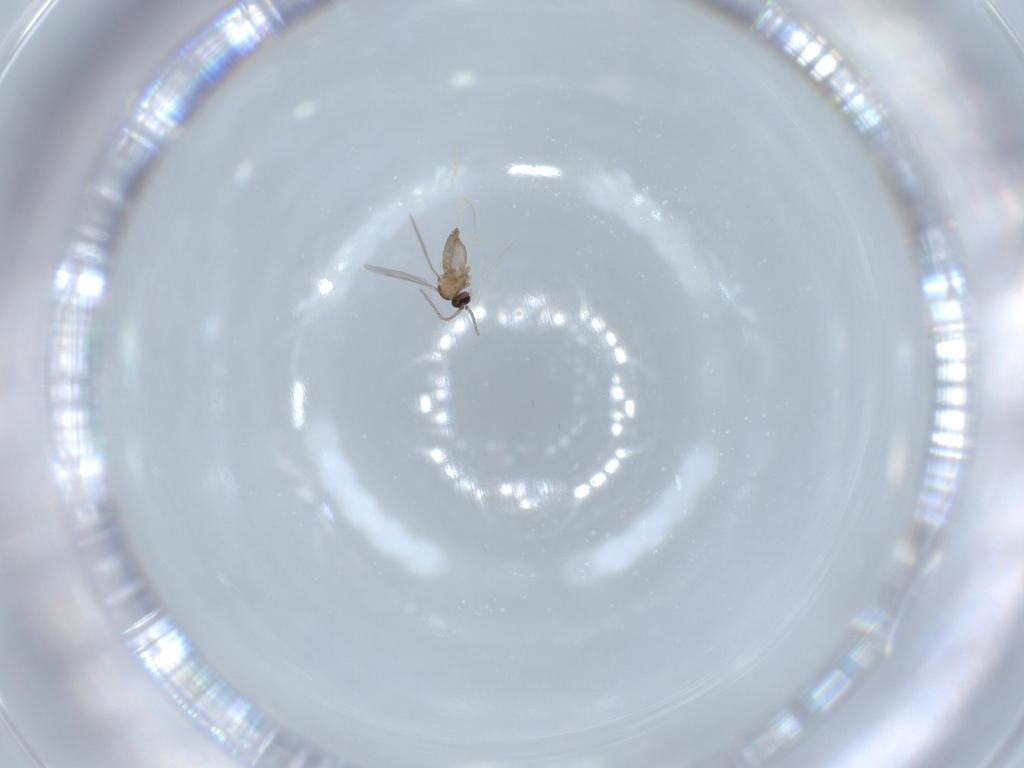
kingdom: Animalia
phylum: Arthropoda
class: Insecta
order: Diptera
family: Cecidomyiidae
